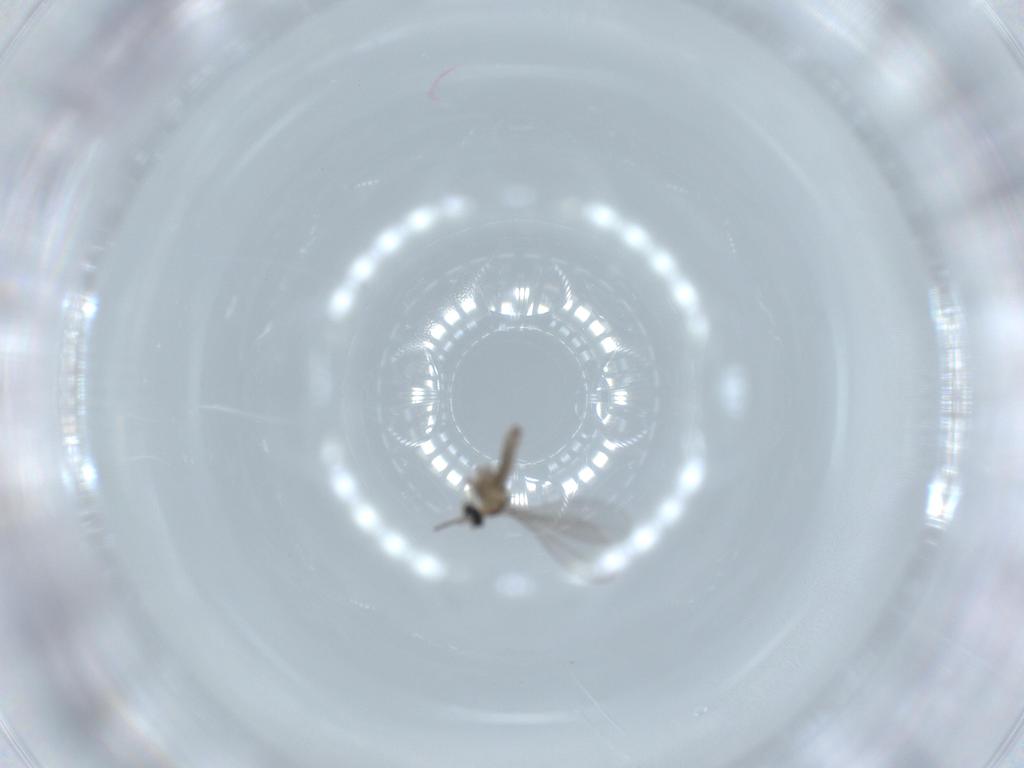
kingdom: Animalia
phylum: Arthropoda
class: Insecta
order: Diptera
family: Cecidomyiidae
